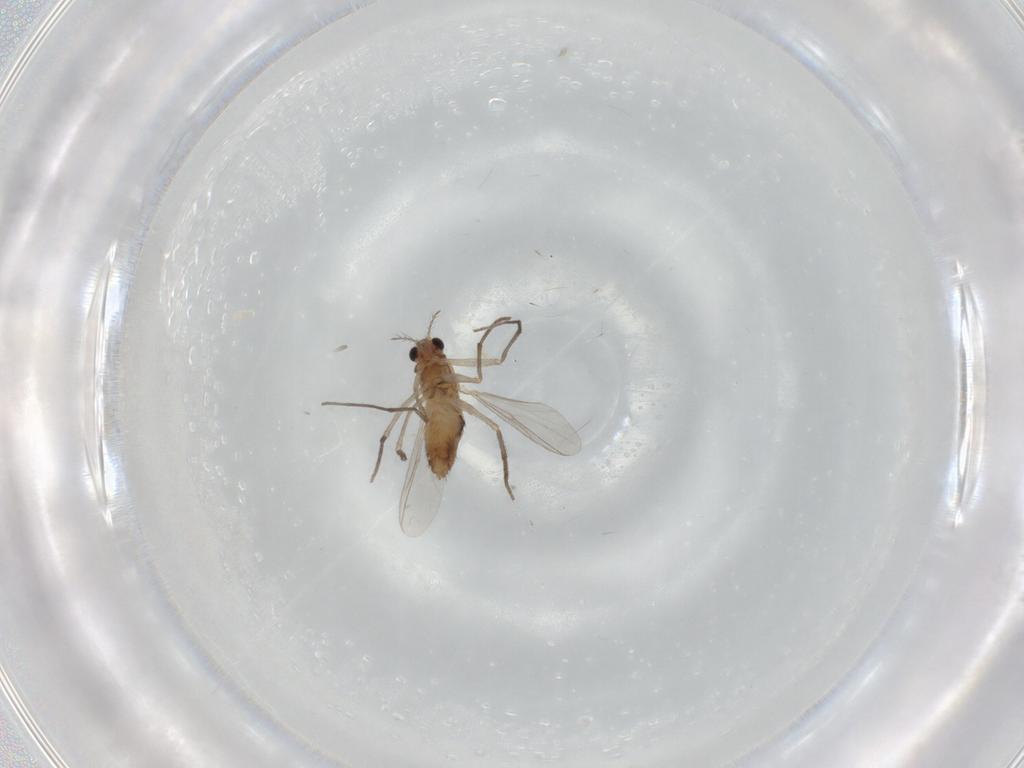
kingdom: Animalia
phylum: Arthropoda
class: Insecta
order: Diptera
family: Chironomidae
